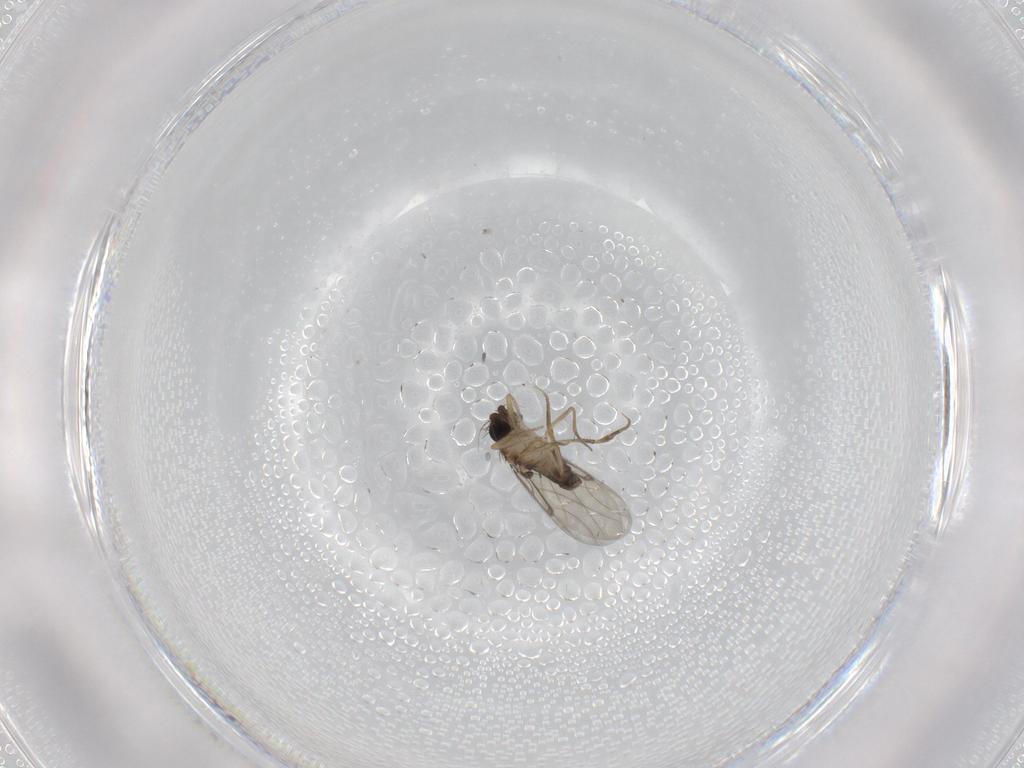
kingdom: Animalia
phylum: Arthropoda
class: Insecta
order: Diptera
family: Phoridae
